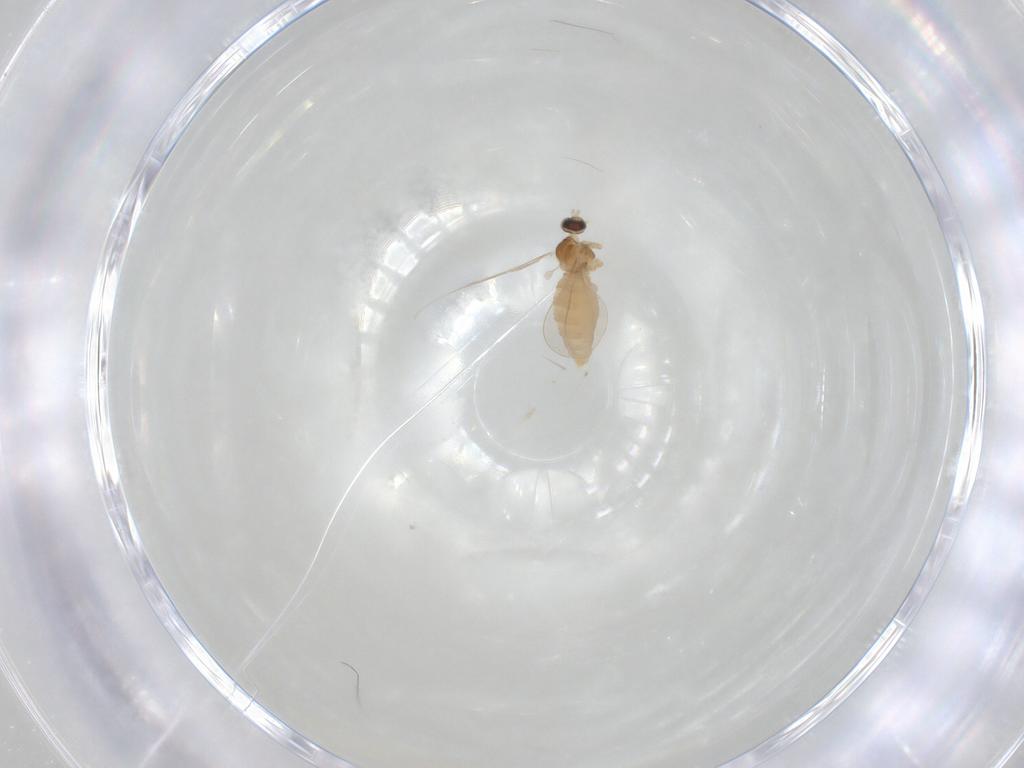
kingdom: Animalia
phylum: Arthropoda
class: Insecta
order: Diptera
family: Cecidomyiidae
